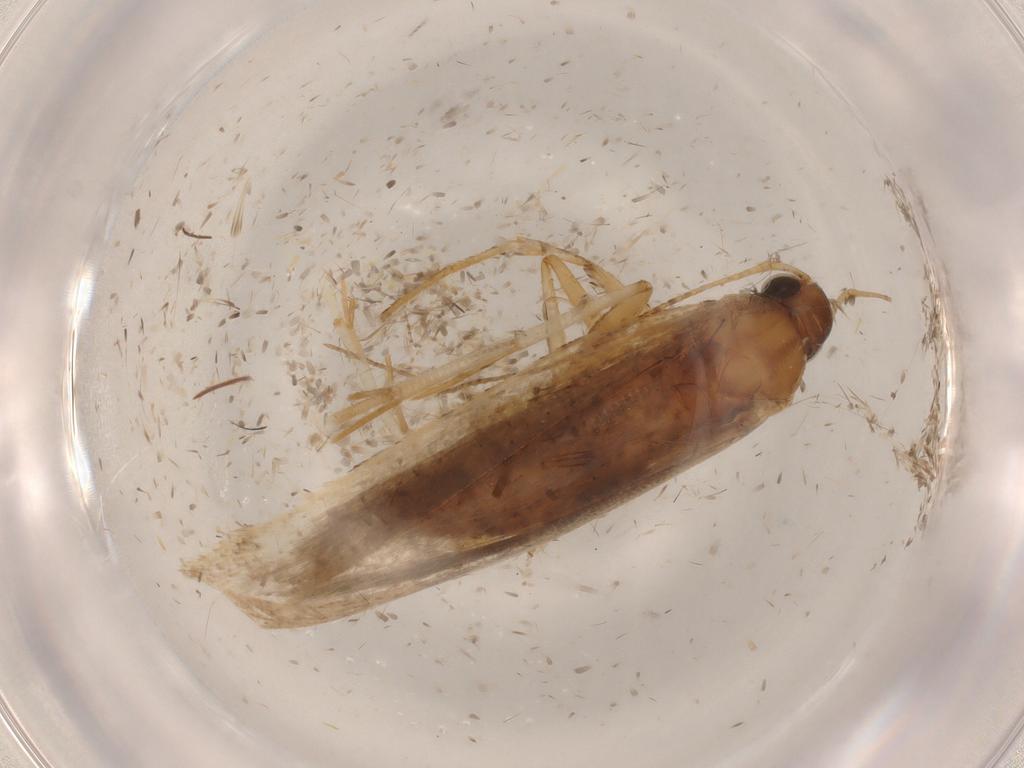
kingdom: Animalia
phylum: Arthropoda
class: Insecta
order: Lepidoptera
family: Gelechiidae
